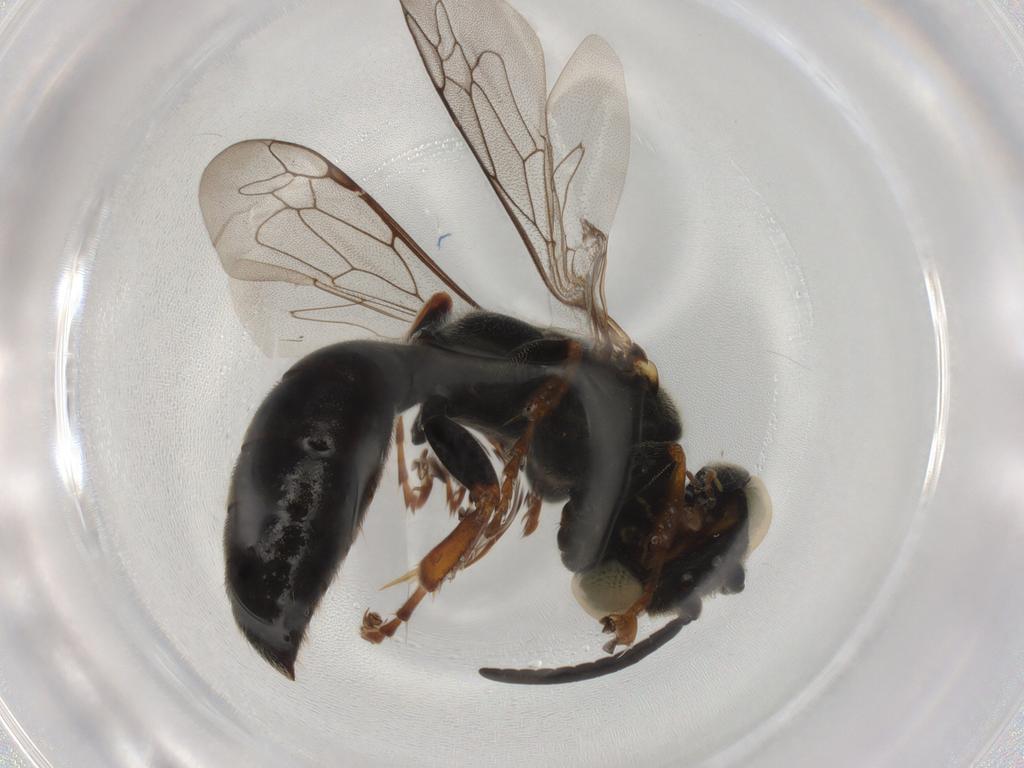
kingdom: Animalia
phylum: Arthropoda
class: Insecta
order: Hymenoptera
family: Crabronidae
